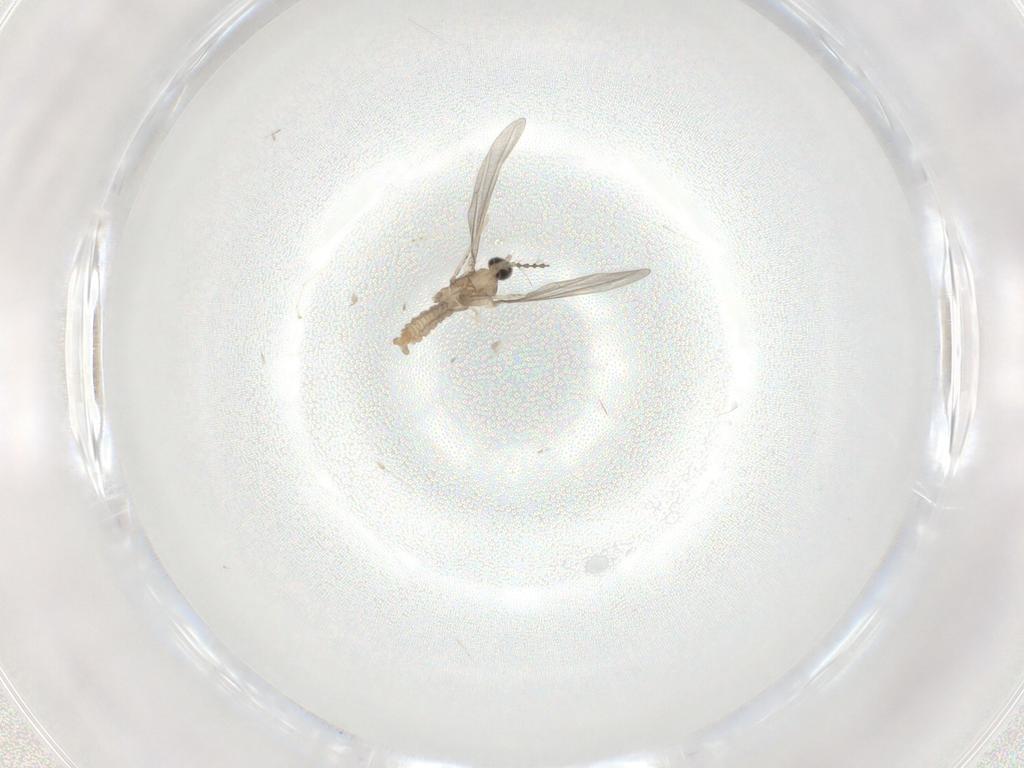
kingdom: Animalia
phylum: Arthropoda
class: Insecta
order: Diptera
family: Cecidomyiidae
